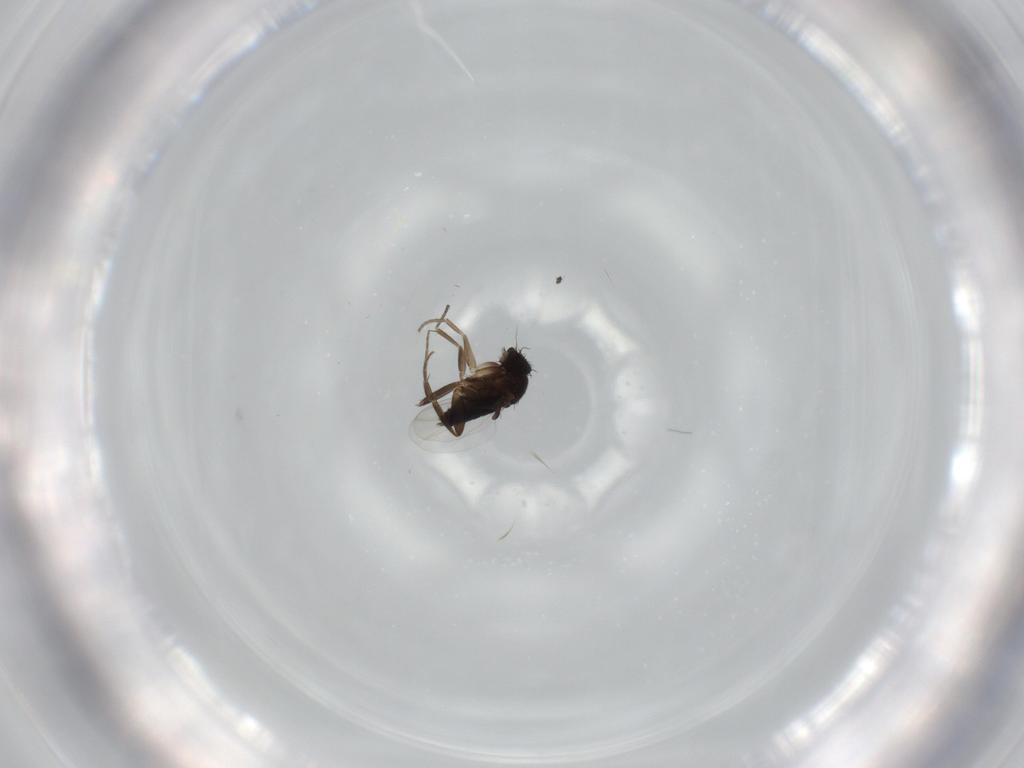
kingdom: Animalia
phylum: Arthropoda
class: Insecta
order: Diptera
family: Phoridae
